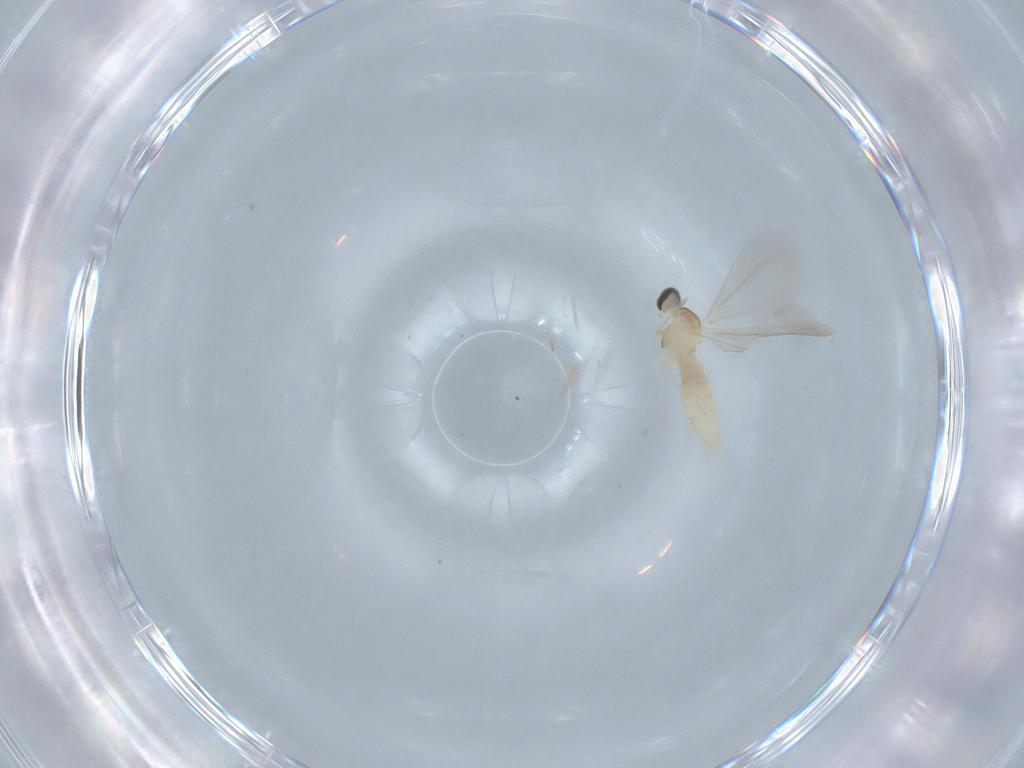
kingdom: Animalia
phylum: Arthropoda
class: Insecta
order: Diptera
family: Cecidomyiidae
